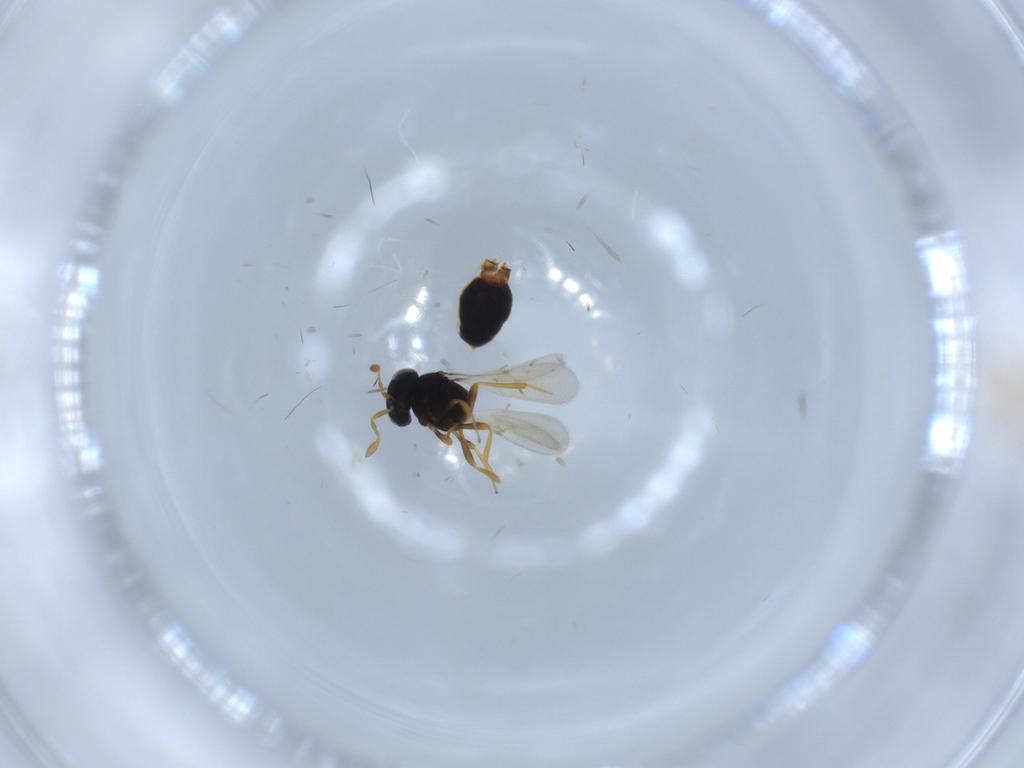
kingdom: Animalia
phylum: Arthropoda
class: Insecta
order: Hymenoptera
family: Scelionidae
